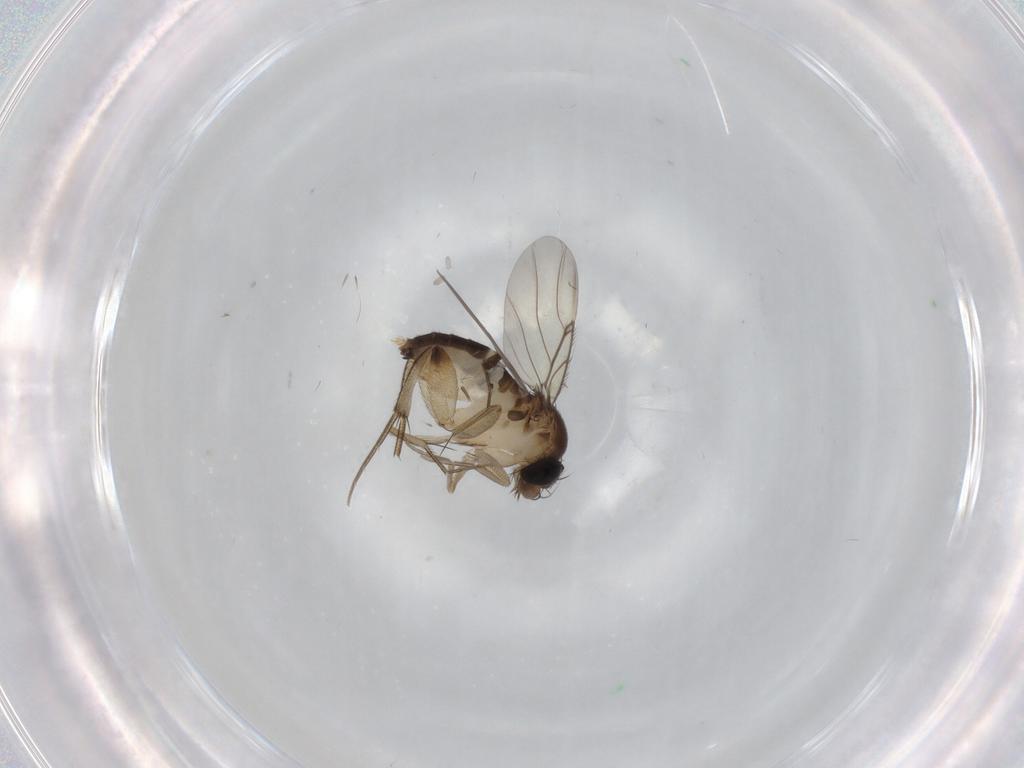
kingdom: Animalia
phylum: Arthropoda
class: Insecta
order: Diptera
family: Phoridae
